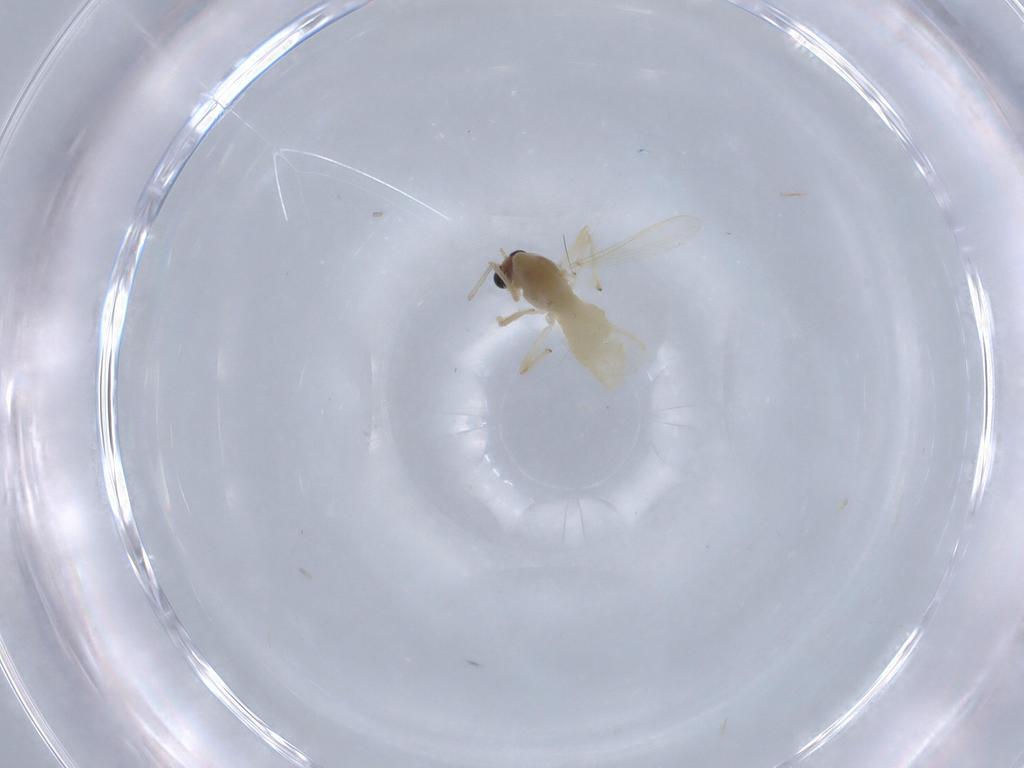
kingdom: Animalia
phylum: Arthropoda
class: Insecta
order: Diptera
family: Chironomidae
